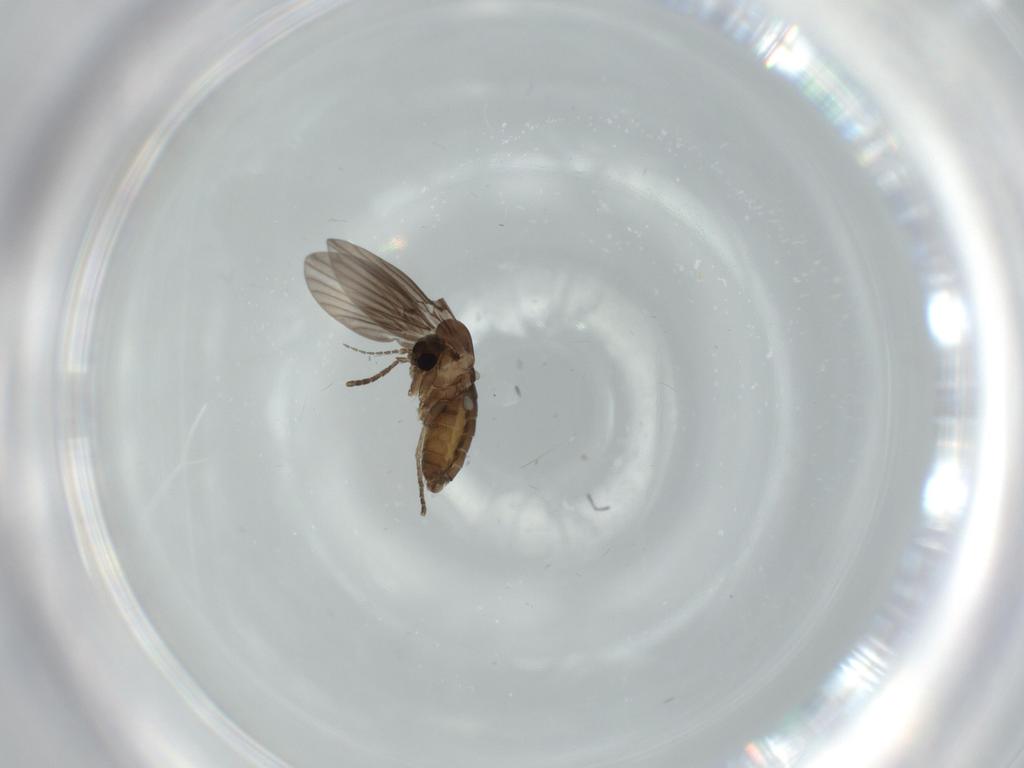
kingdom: Animalia
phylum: Arthropoda
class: Insecta
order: Diptera
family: Psychodidae
